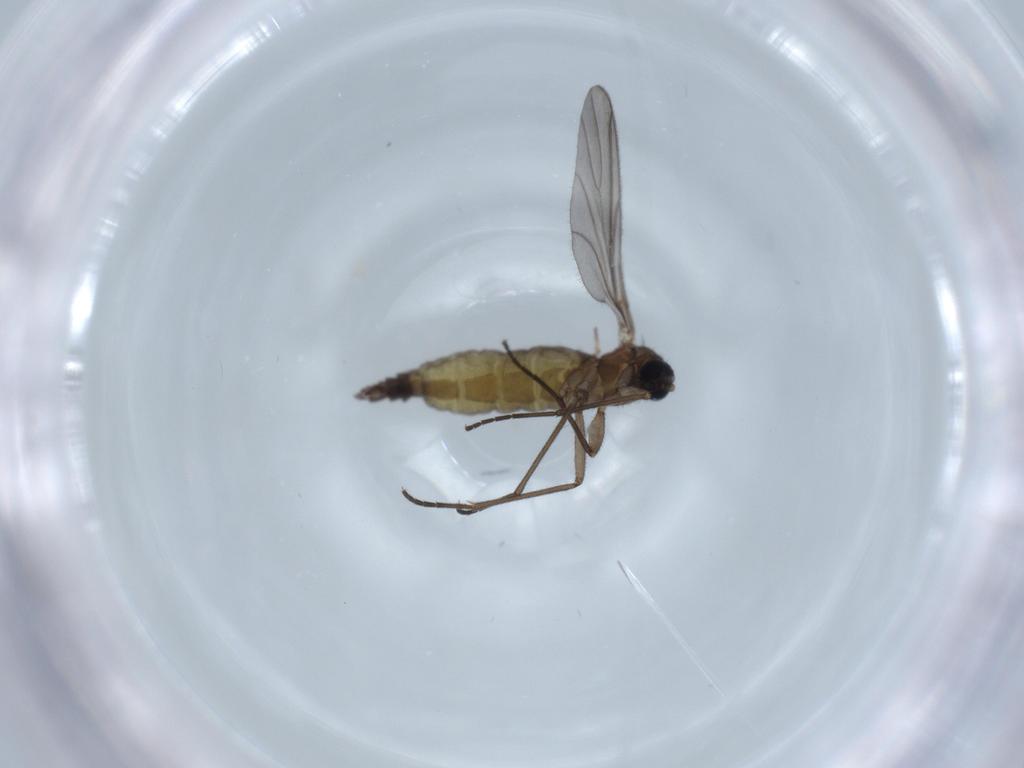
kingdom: Animalia
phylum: Arthropoda
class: Insecta
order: Diptera
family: Sciaridae
